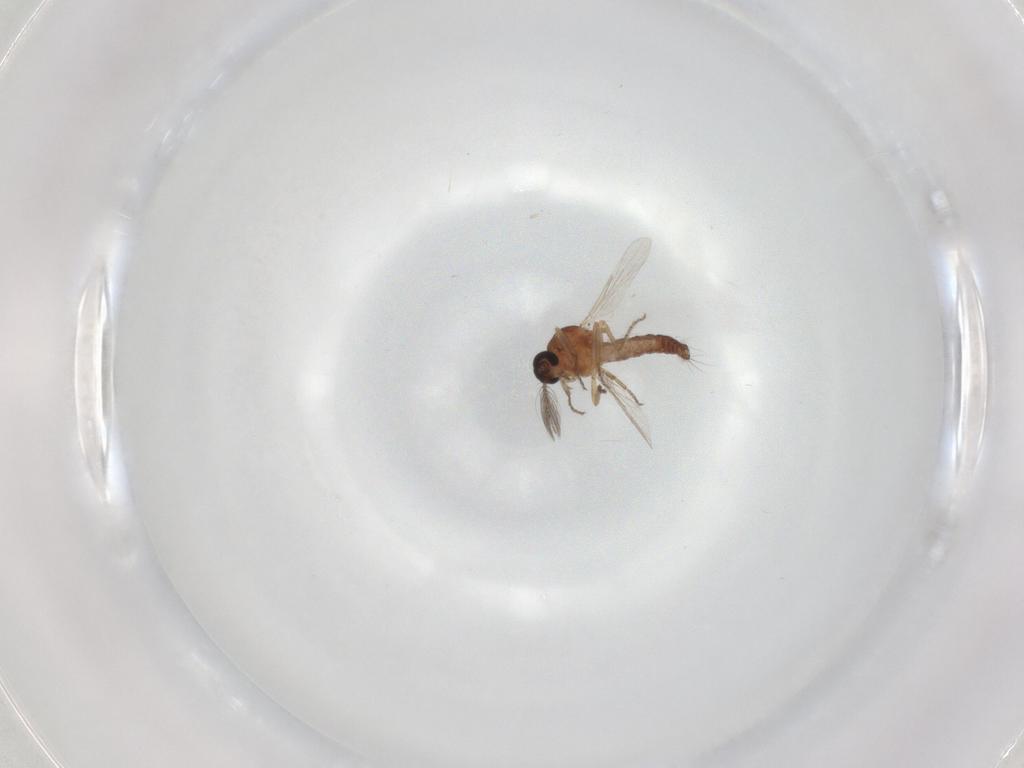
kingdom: Animalia
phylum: Arthropoda
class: Insecta
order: Diptera
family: Ceratopogonidae
